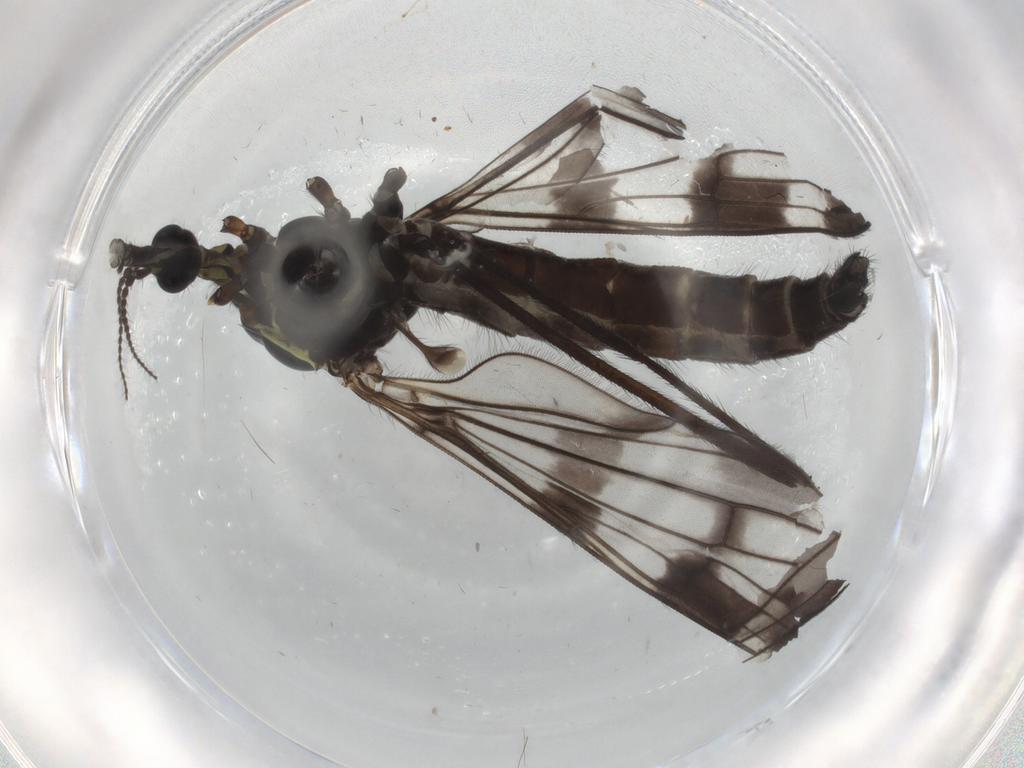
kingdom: Animalia
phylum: Arthropoda
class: Insecta
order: Diptera
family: Ceratopogonidae
